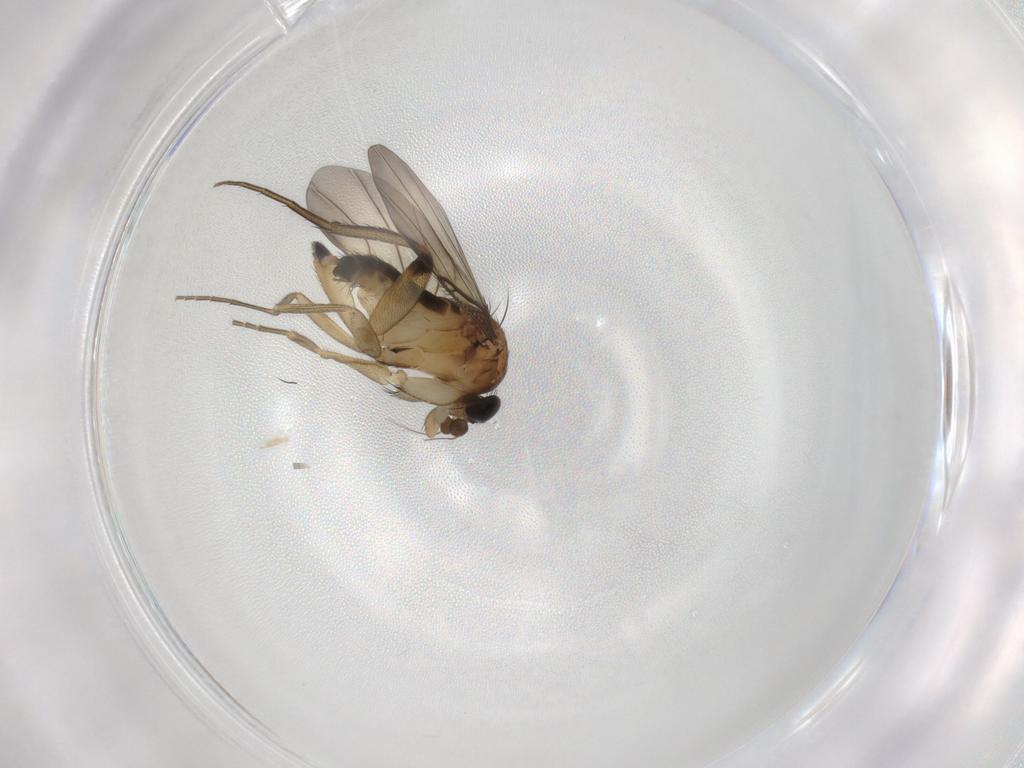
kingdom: Animalia
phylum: Arthropoda
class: Insecta
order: Diptera
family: Phoridae
